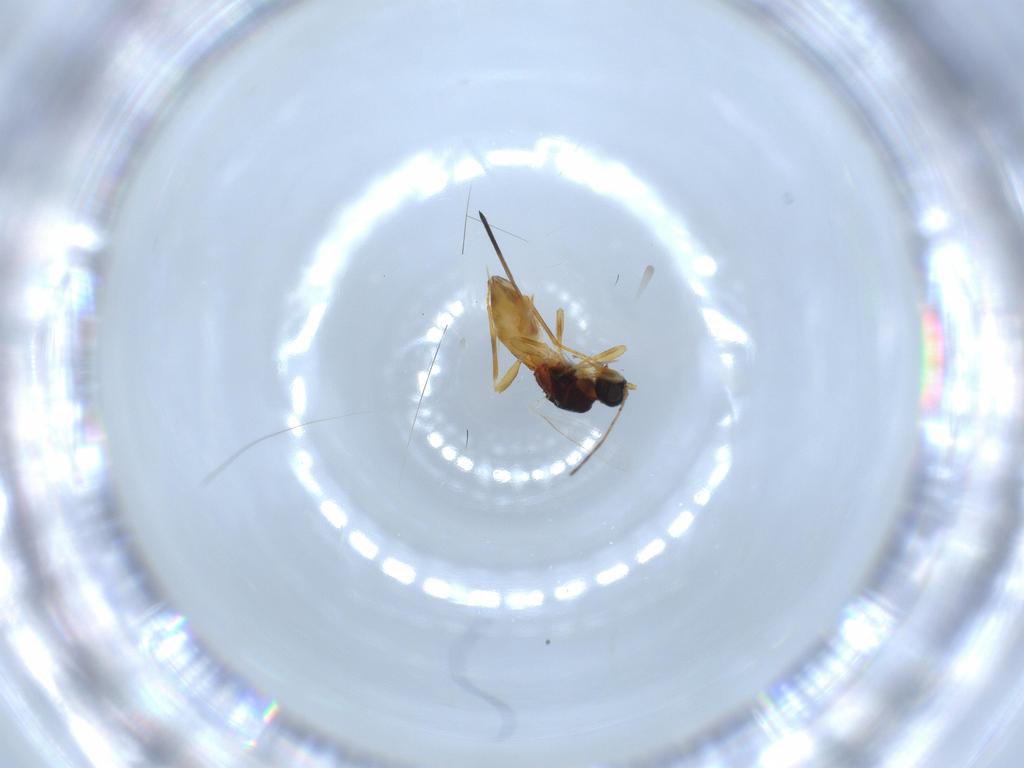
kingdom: Animalia
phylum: Arthropoda
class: Insecta
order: Hymenoptera
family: Braconidae
